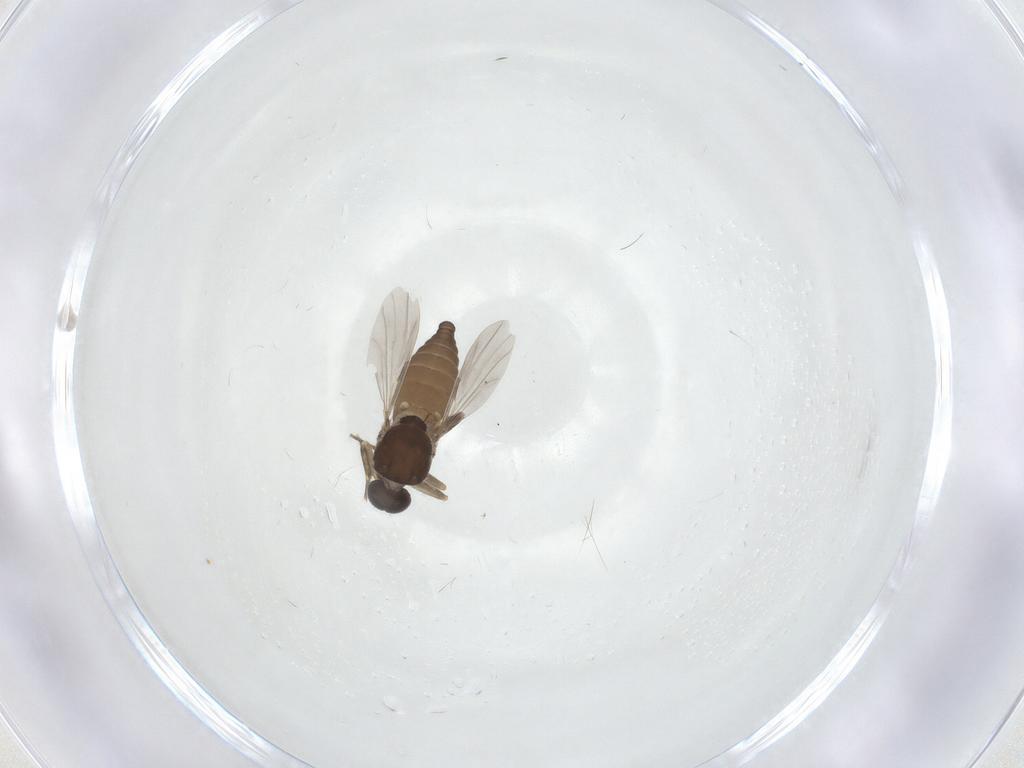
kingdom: Animalia
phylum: Arthropoda
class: Insecta
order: Diptera
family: Ceratopogonidae
